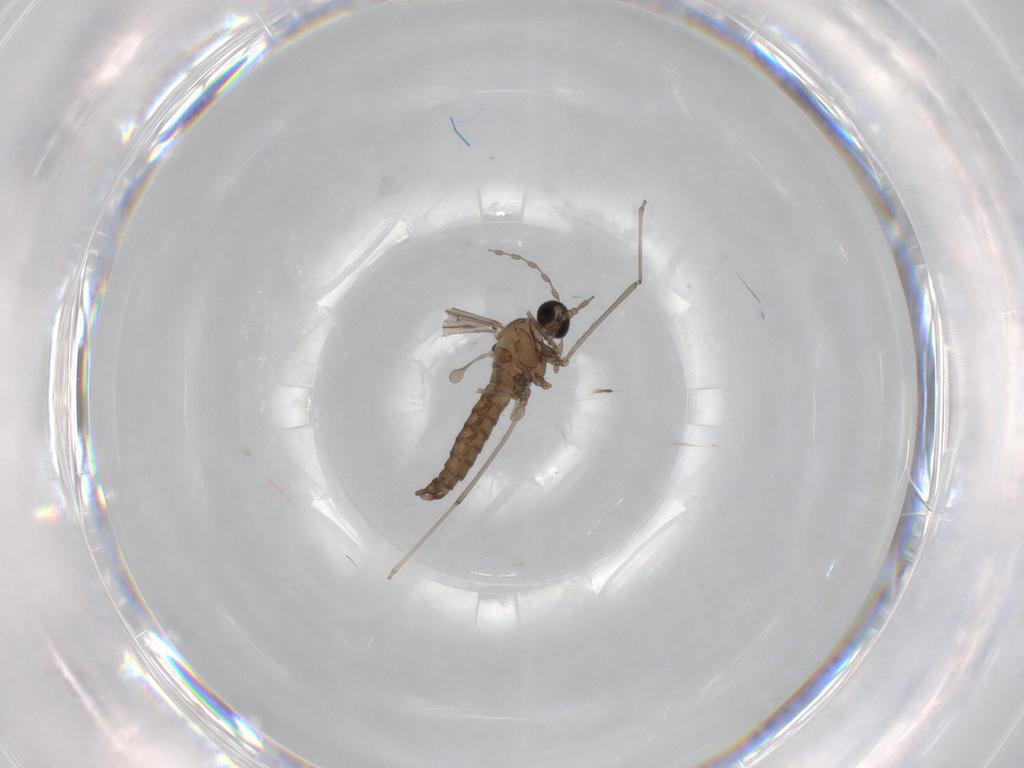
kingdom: Animalia
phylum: Arthropoda
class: Insecta
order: Diptera
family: Cecidomyiidae
